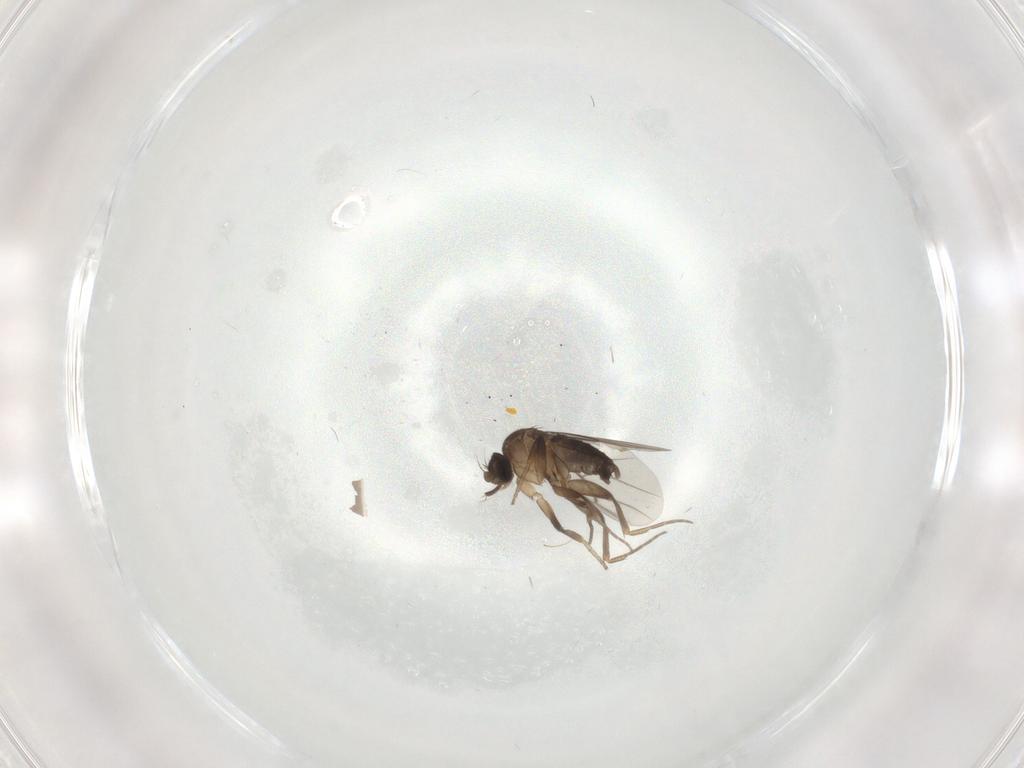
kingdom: Animalia
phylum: Arthropoda
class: Insecta
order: Diptera
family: Phoridae
